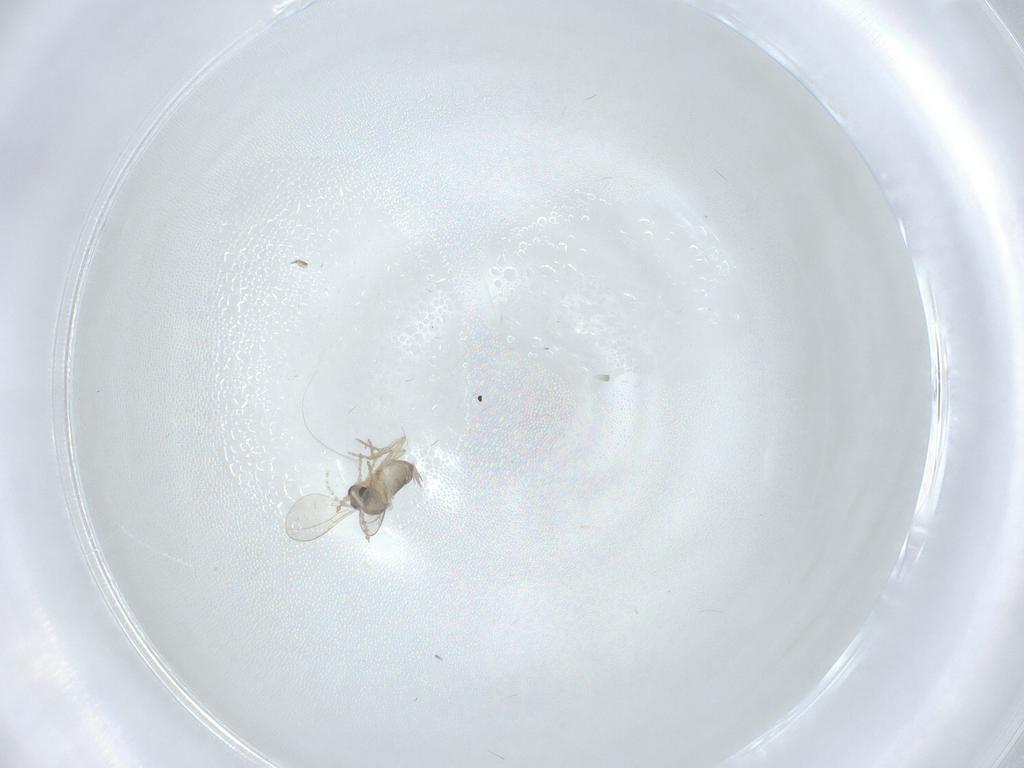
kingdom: Animalia
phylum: Arthropoda
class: Insecta
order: Diptera
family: Cecidomyiidae
